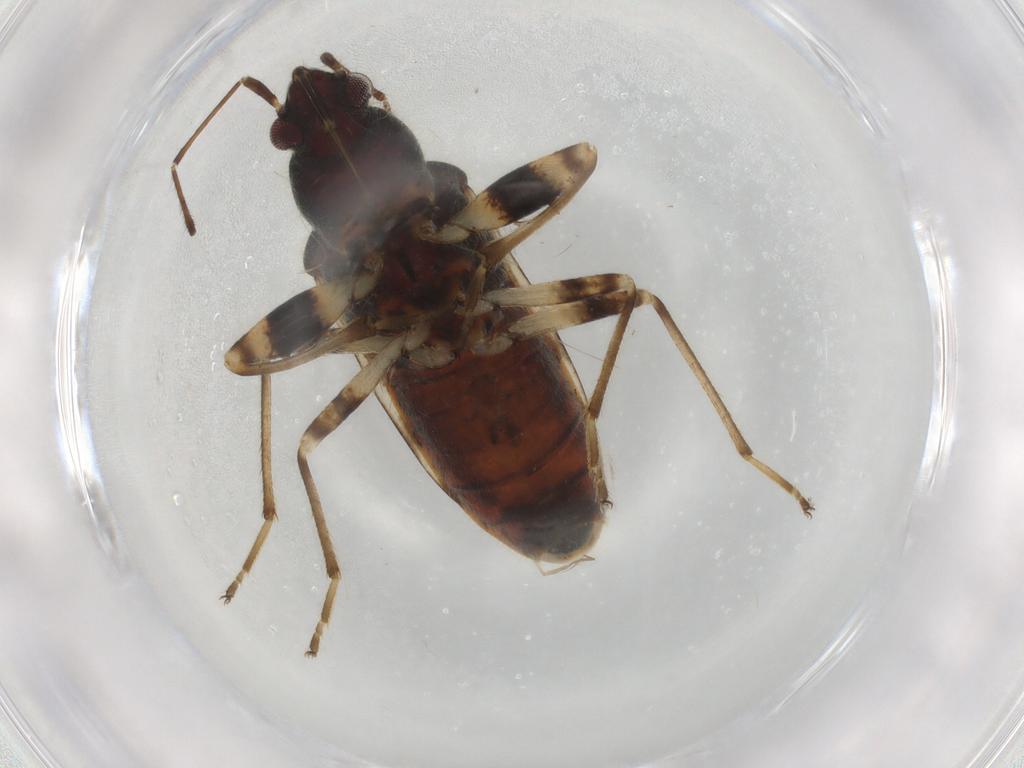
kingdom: Animalia
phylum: Arthropoda
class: Insecta
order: Hemiptera
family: Rhyparochromidae
